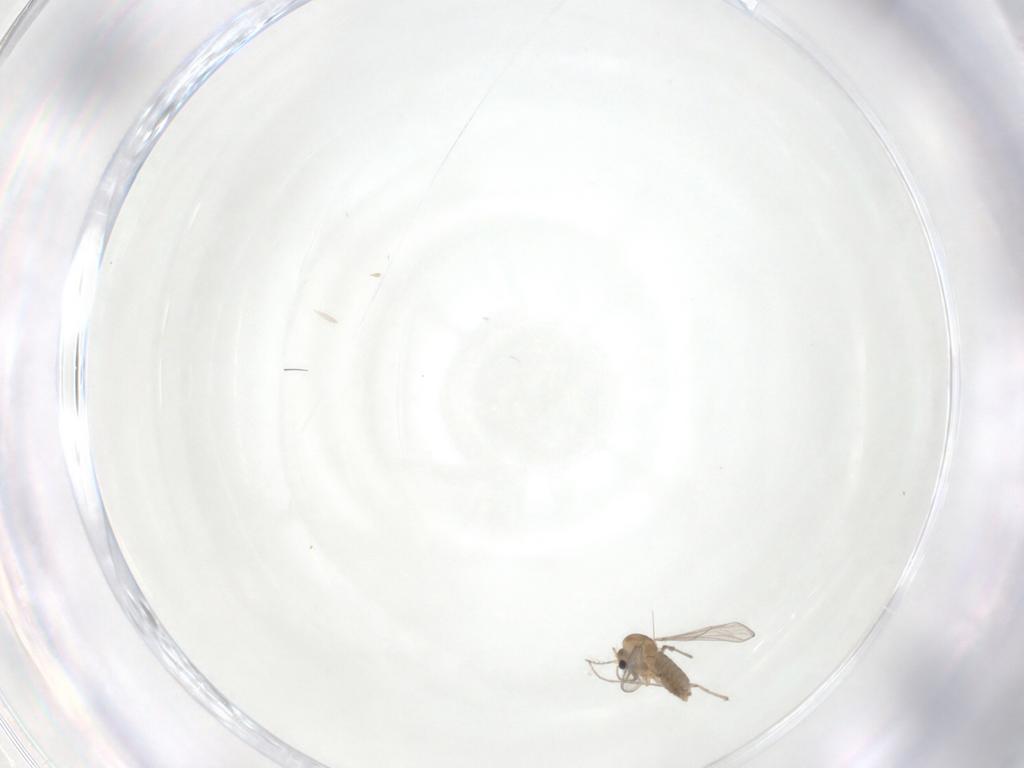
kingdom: Animalia
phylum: Arthropoda
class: Insecta
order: Diptera
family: Chironomidae
